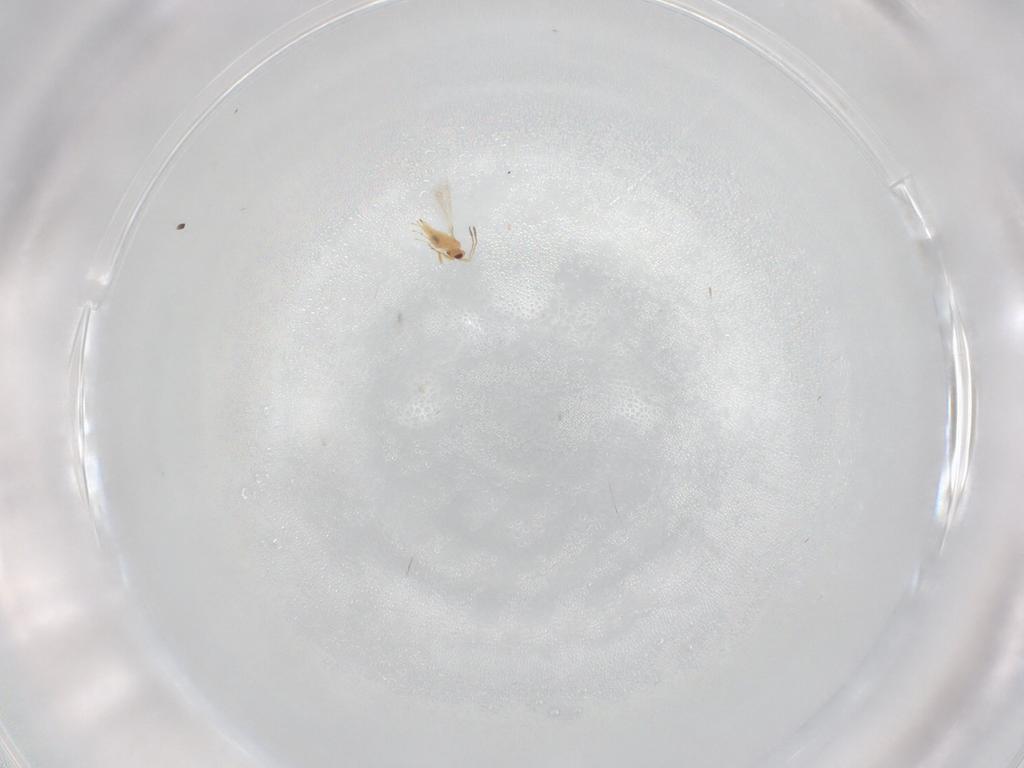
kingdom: Animalia
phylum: Arthropoda
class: Insecta
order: Hymenoptera
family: Mymaridae
